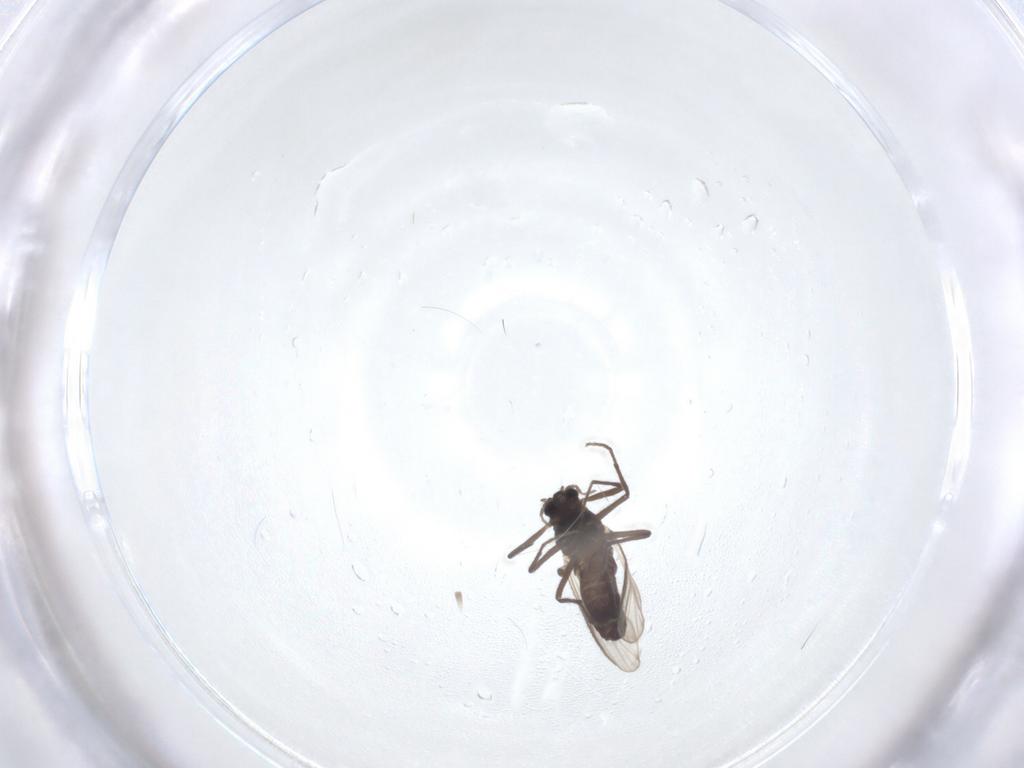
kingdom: Animalia
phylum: Arthropoda
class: Insecta
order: Diptera
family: Chironomidae
